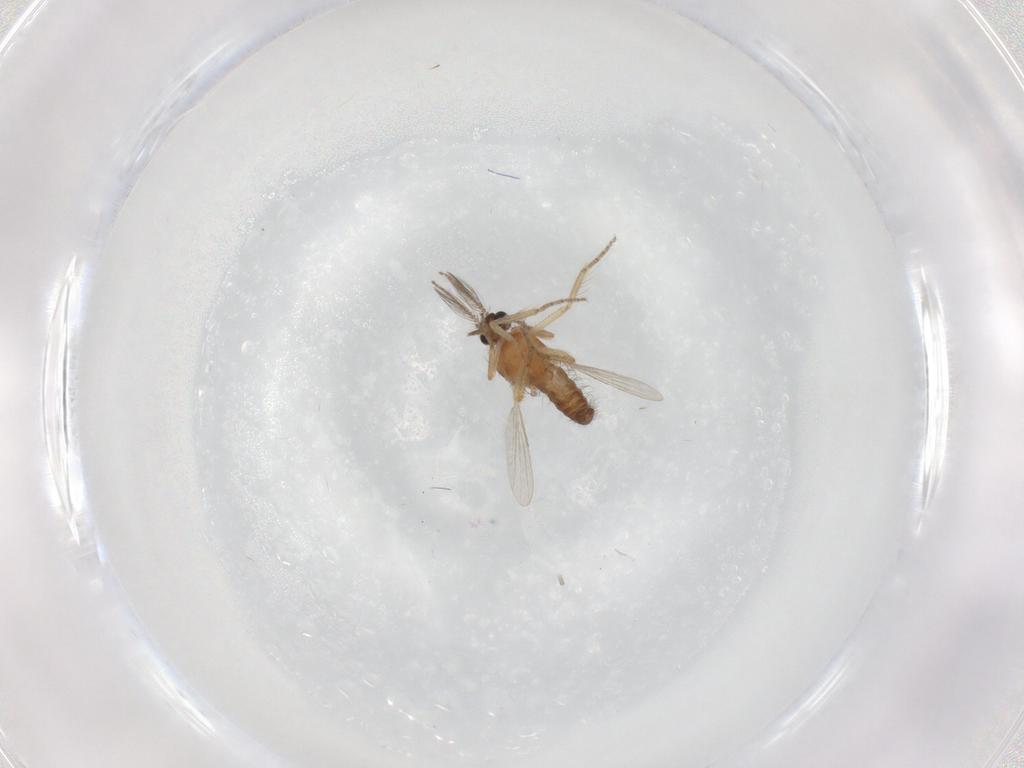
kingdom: Animalia
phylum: Arthropoda
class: Insecta
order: Diptera
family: Ceratopogonidae
